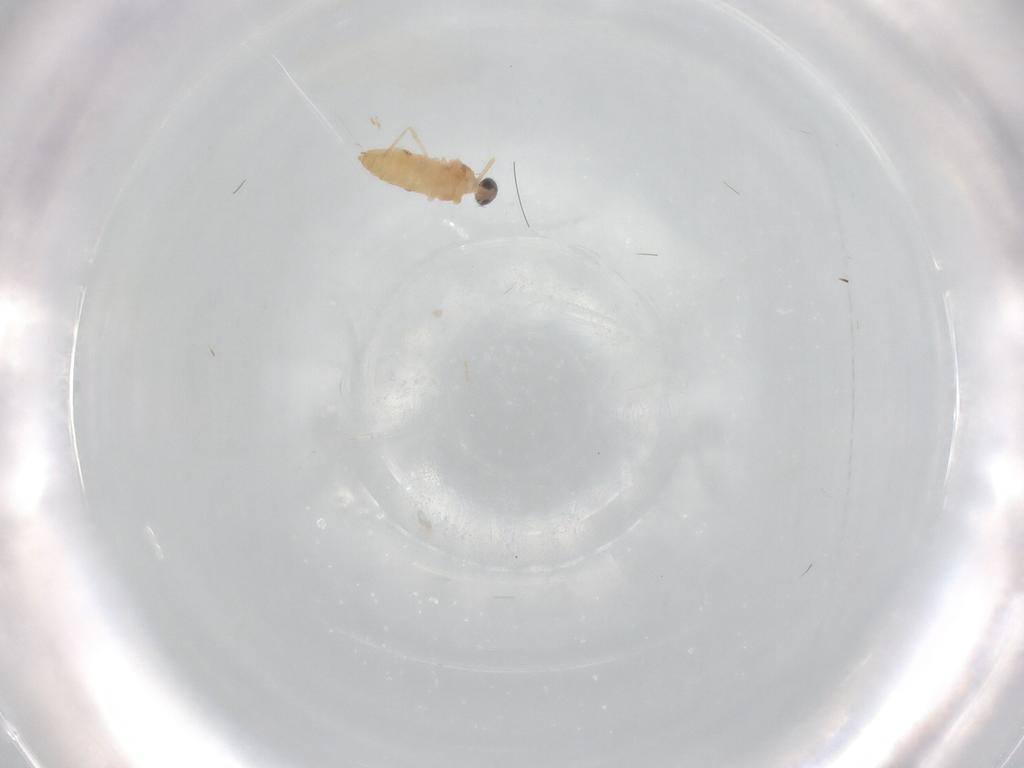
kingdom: Animalia
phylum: Arthropoda
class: Insecta
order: Diptera
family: Cecidomyiidae
